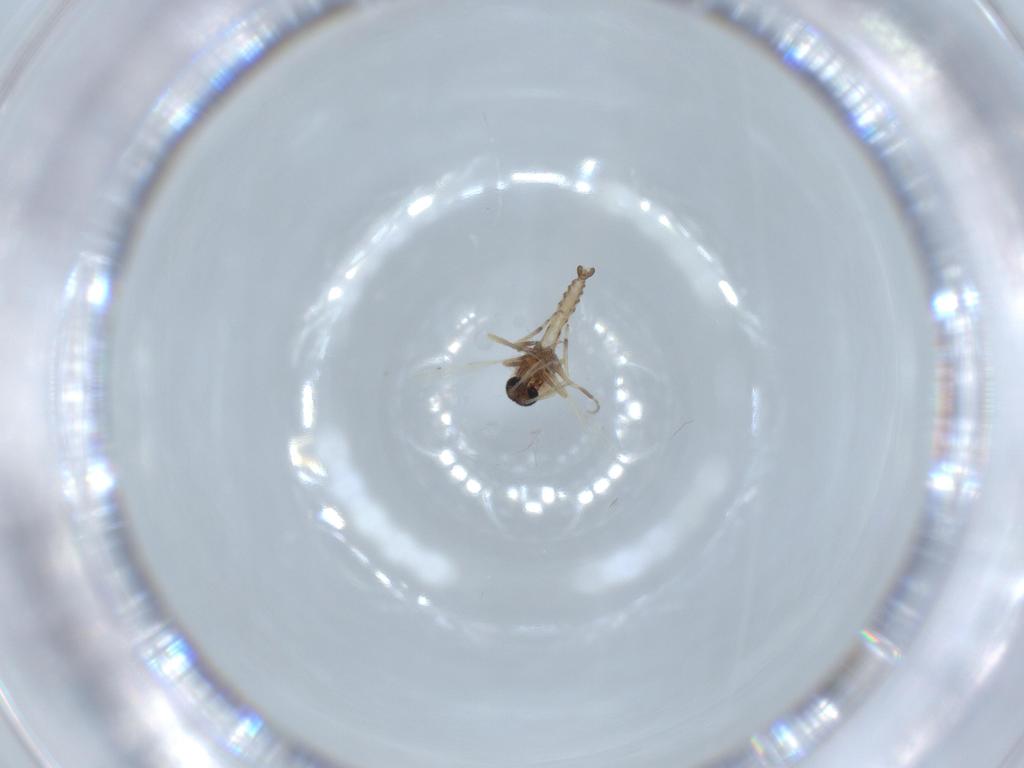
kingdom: Animalia
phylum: Arthropoda
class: Insecta
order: Diptera
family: Ceratopogonidae
